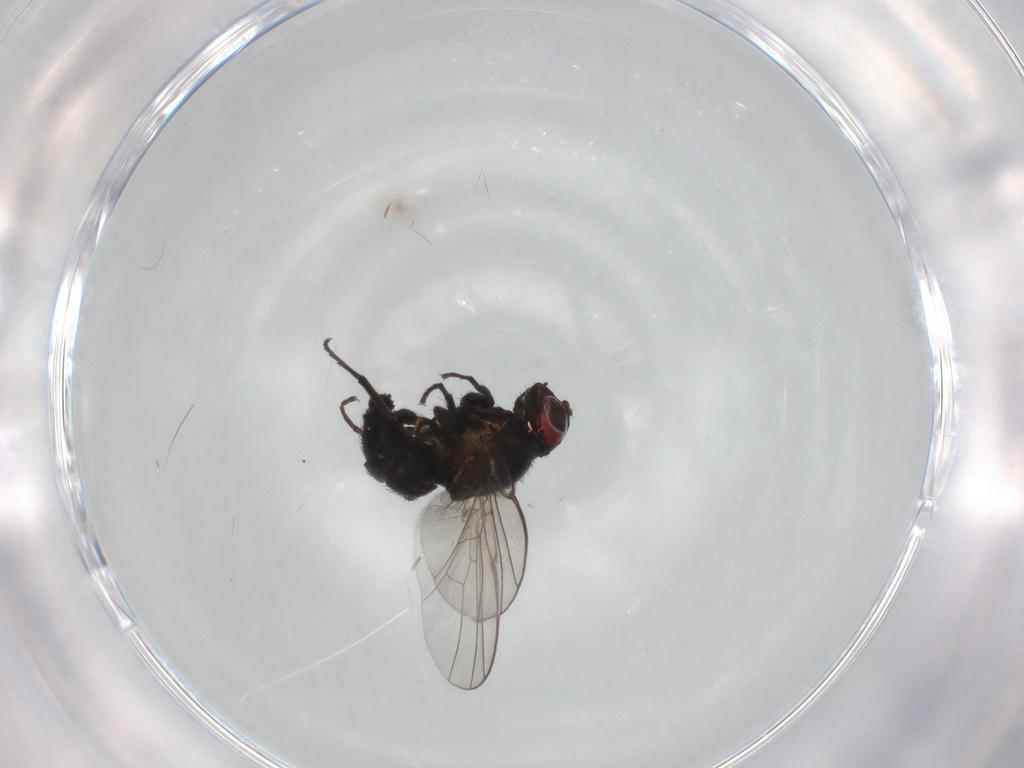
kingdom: Animalia
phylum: Arthropoda
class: Insecta
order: Diptera
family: Agromyzidae
